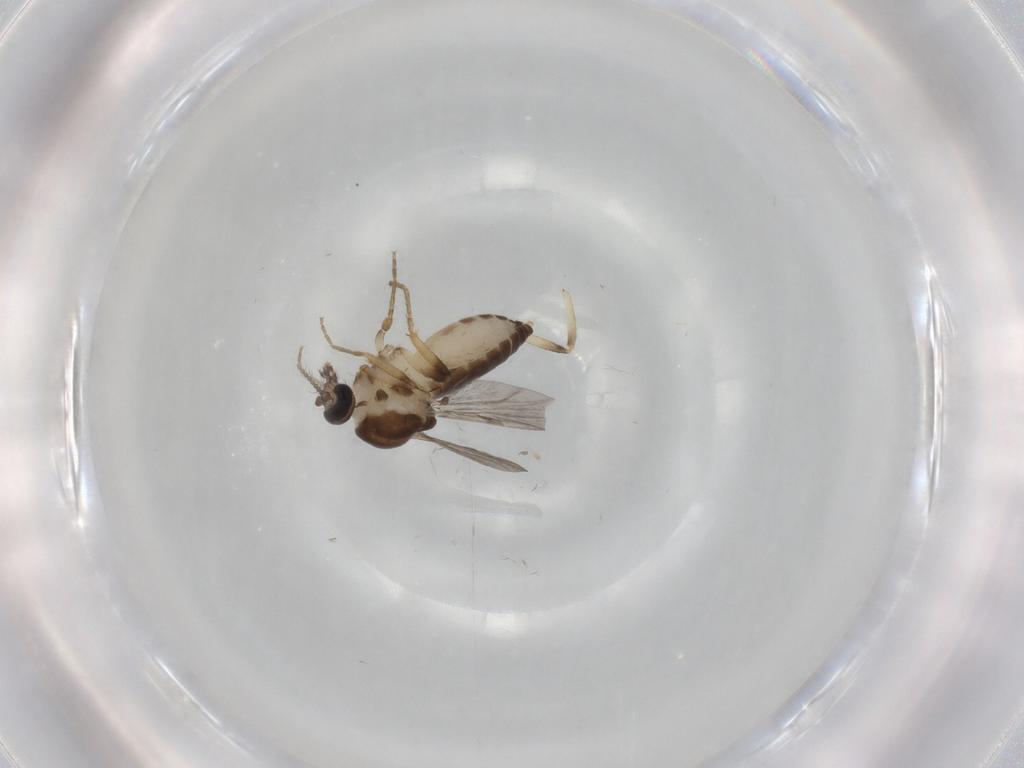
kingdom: Animalia
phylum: Arthropoda
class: Insecta
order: Diptera
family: Ceratopogonidae
